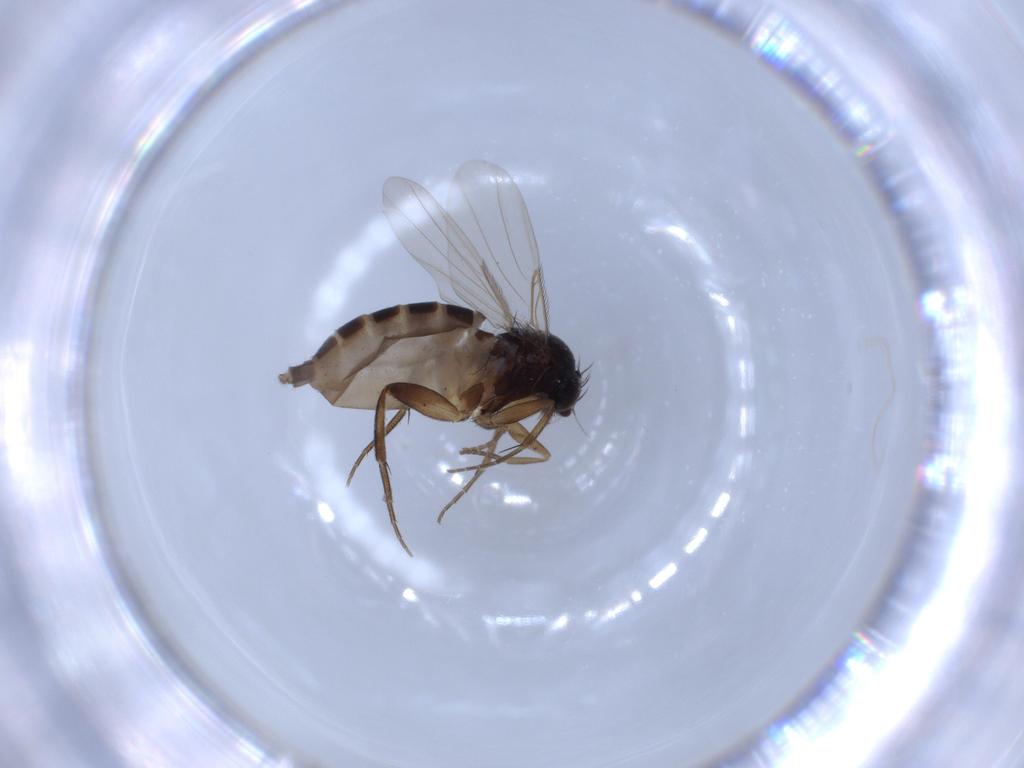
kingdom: Animalia
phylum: Arthropoda
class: Insecta
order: Diptera
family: Phoridae
